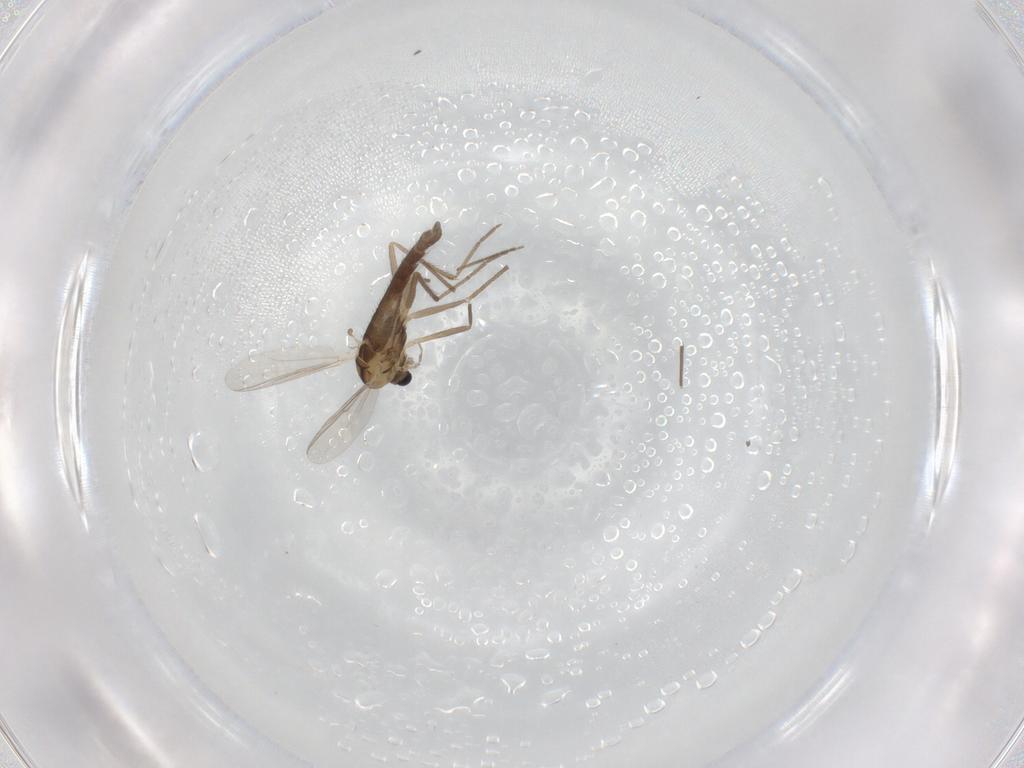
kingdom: Animalia
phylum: Arthropoda
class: Insecta
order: Diptera
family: Chironomidae
